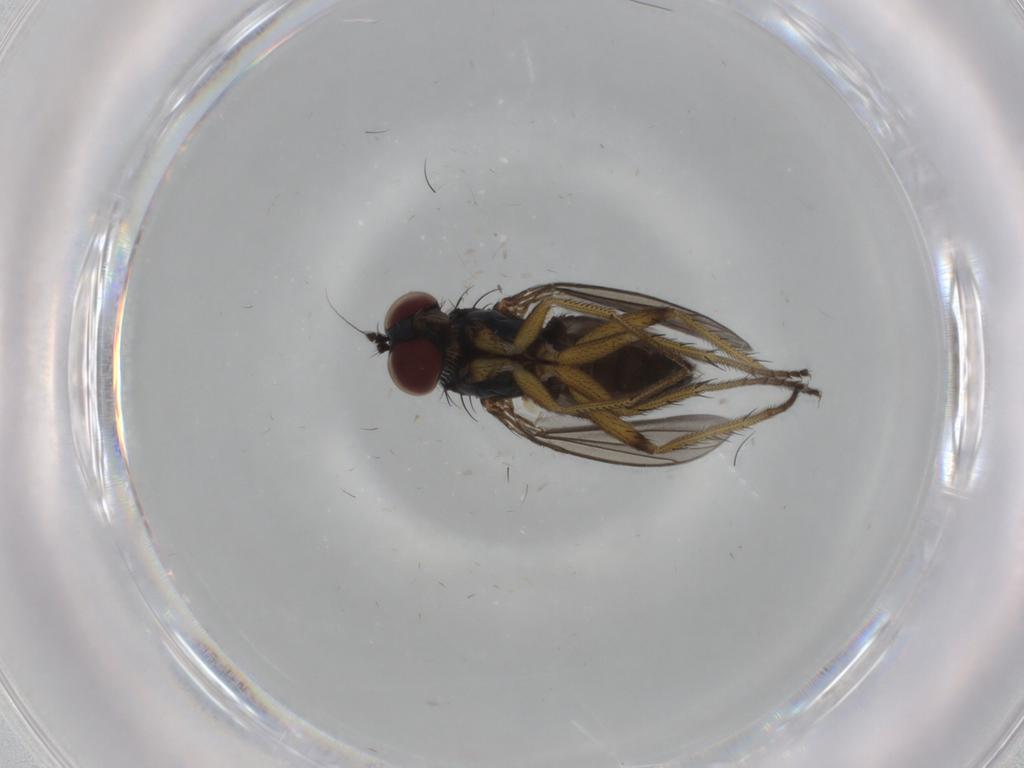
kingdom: Animalia
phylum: Arthropoda
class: Insecta
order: Diptera
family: Dolichopodidae
